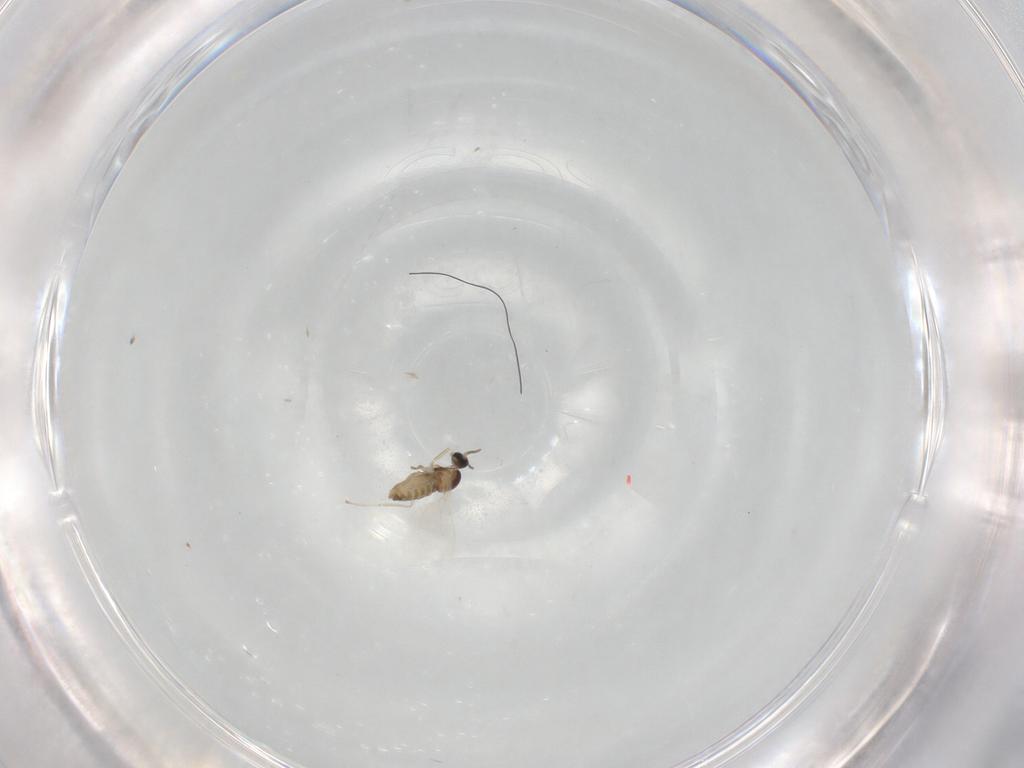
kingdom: Animalia
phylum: Arthropoda
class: Insecta
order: Diptera
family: Cecidomyiidae
